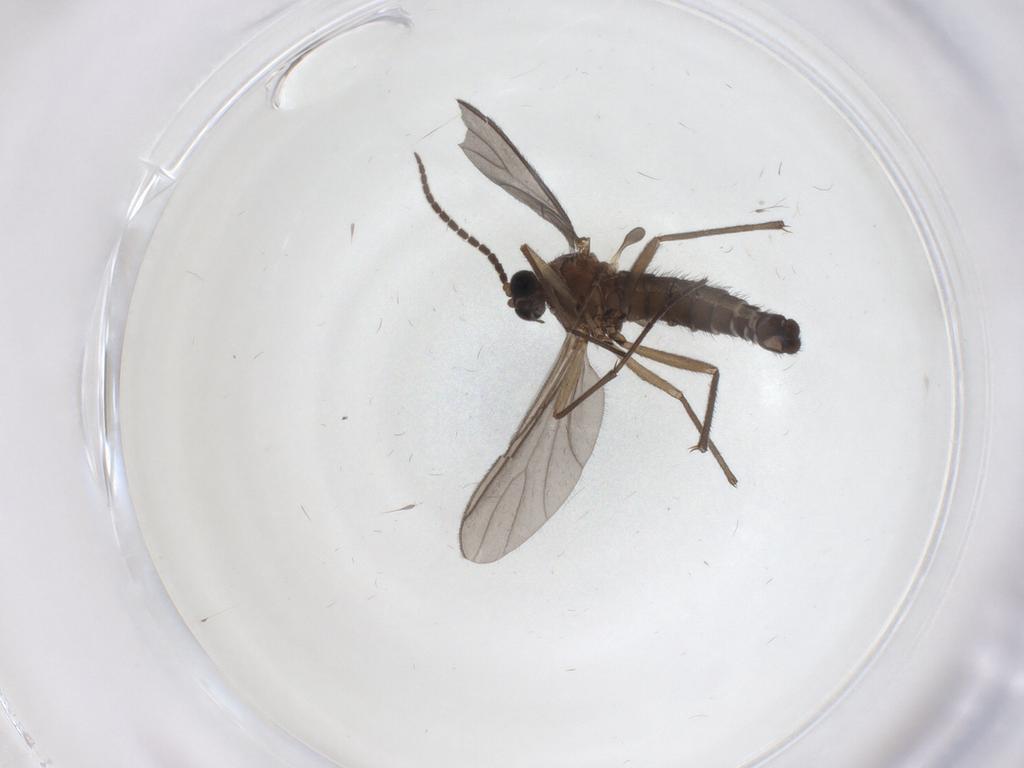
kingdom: Animalia
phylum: Arthropoda
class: Insecta
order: Diptera
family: Sciaridae
